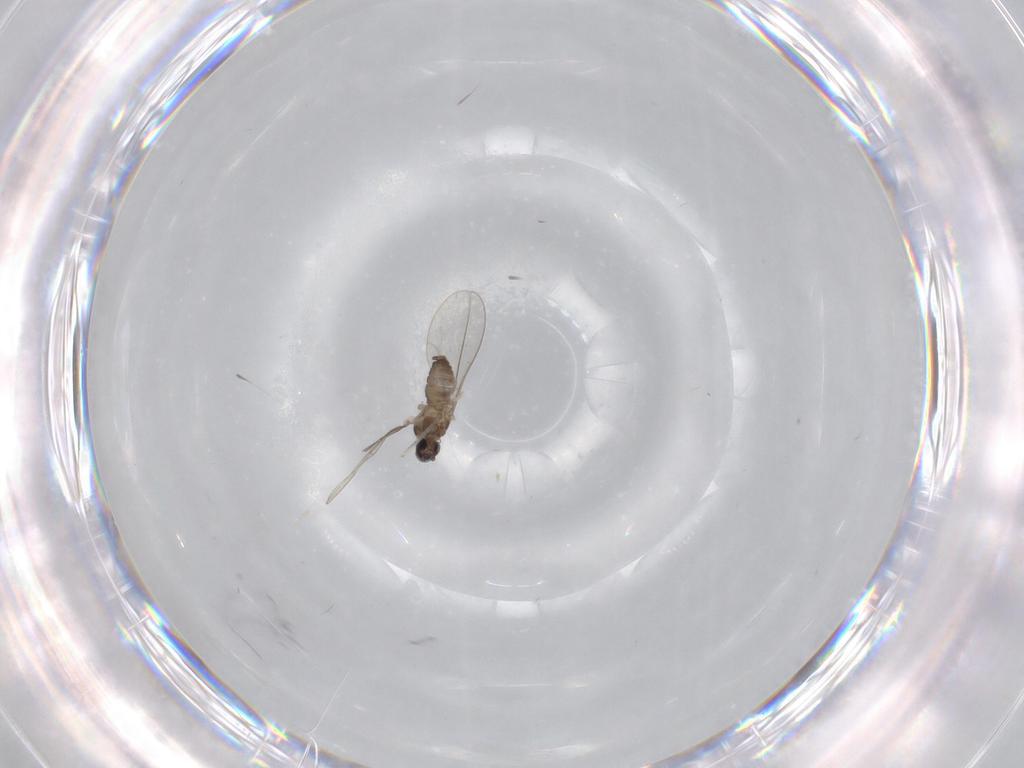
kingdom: Animalia
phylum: Arthropoda
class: Insecta
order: Diptera
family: Cecidomyiidae
